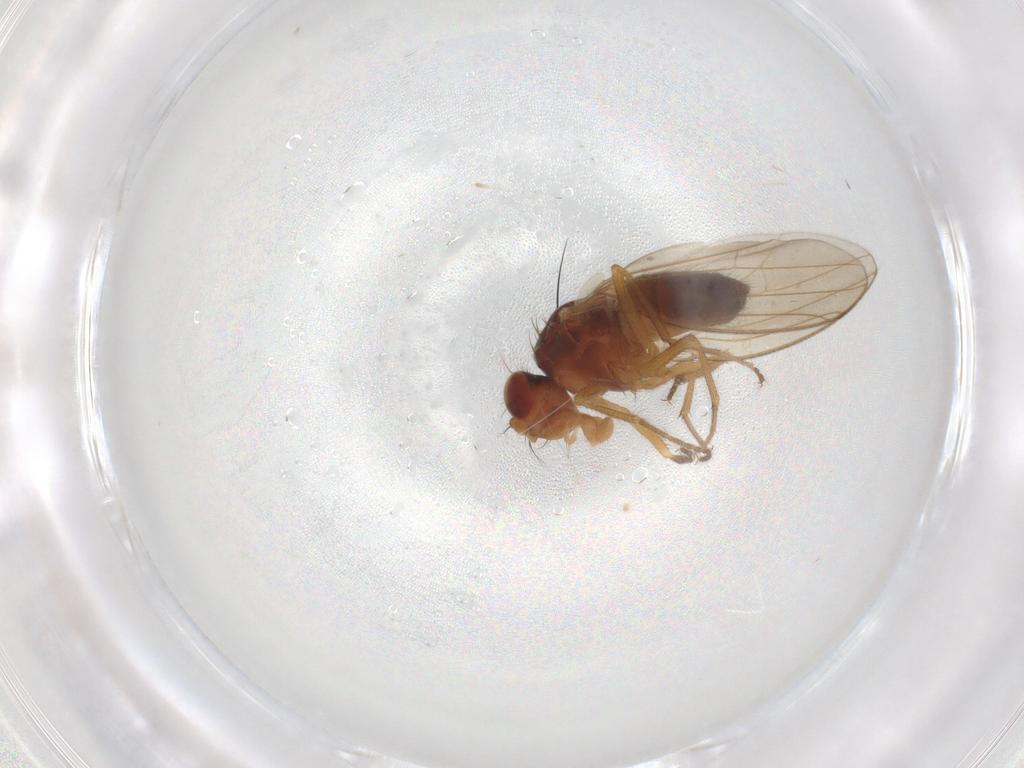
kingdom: Animalia
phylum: Arthropoda
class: Insecta
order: Diptera
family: Drosophilidae
